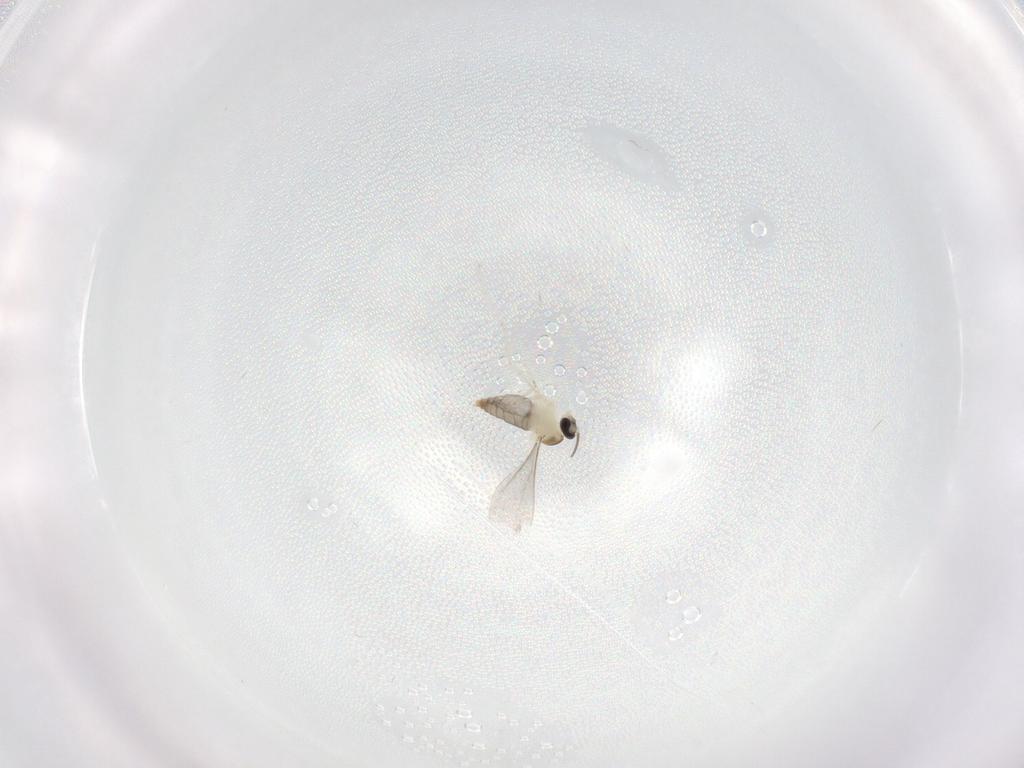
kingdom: Animalia
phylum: Arthropoda
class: Insecta
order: Diptera
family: Cecidomyiidae
